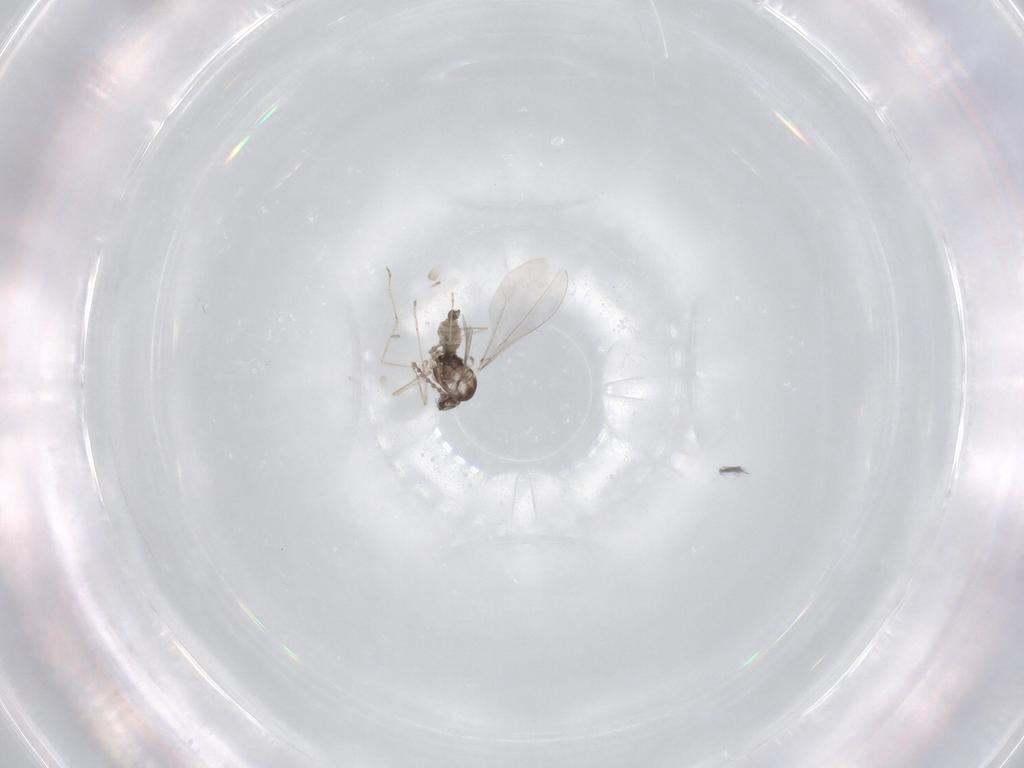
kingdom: Animalia
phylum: Arthropoda
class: Insecta
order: Diptera
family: Cecidomyiidae
